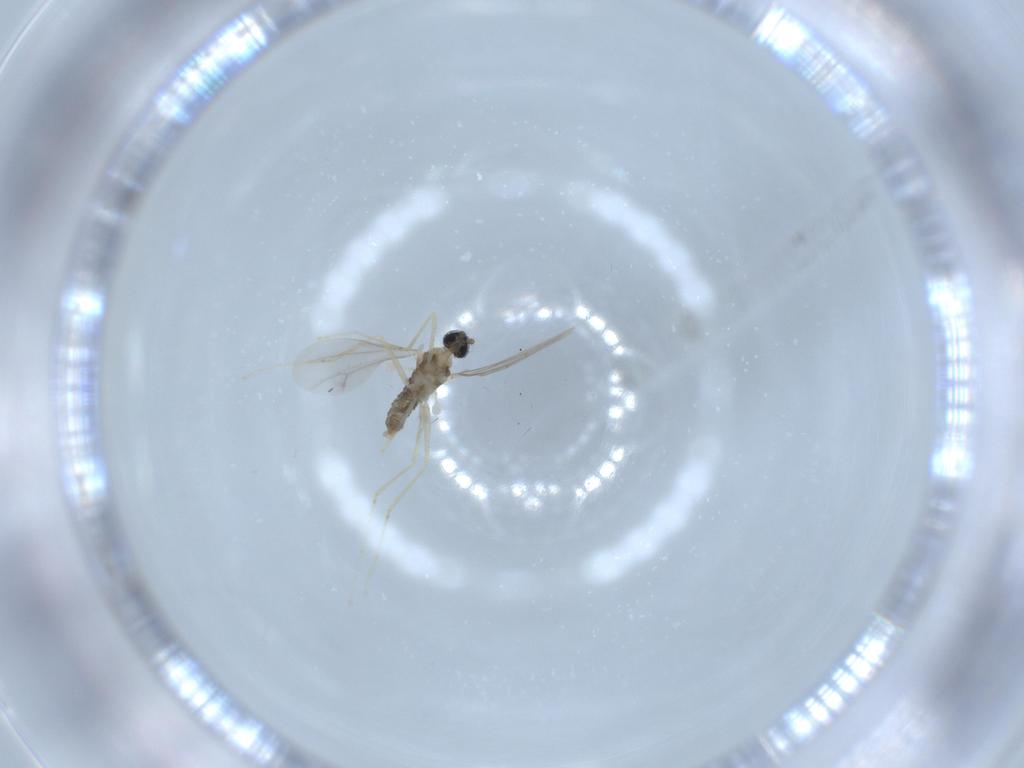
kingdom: Animalia
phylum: Arthropoda
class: Insecta
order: Diptera
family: Cecidomyiidae
